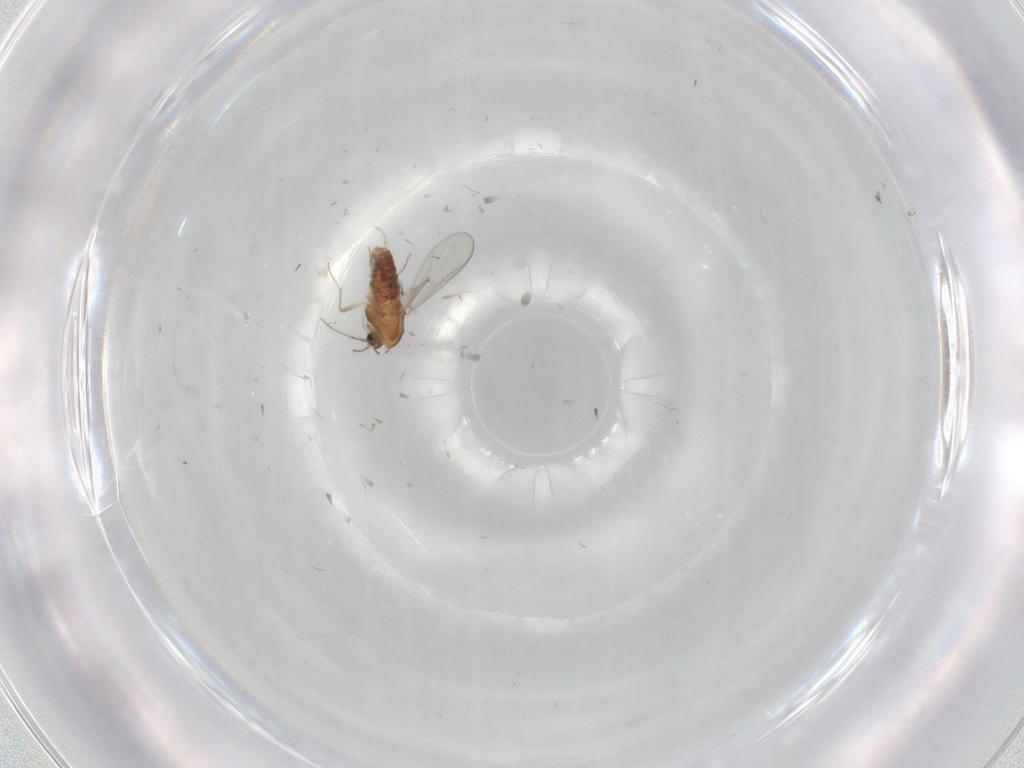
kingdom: Animalia
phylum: Arthropoda
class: Insecta
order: Diptera
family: Chironomidae
